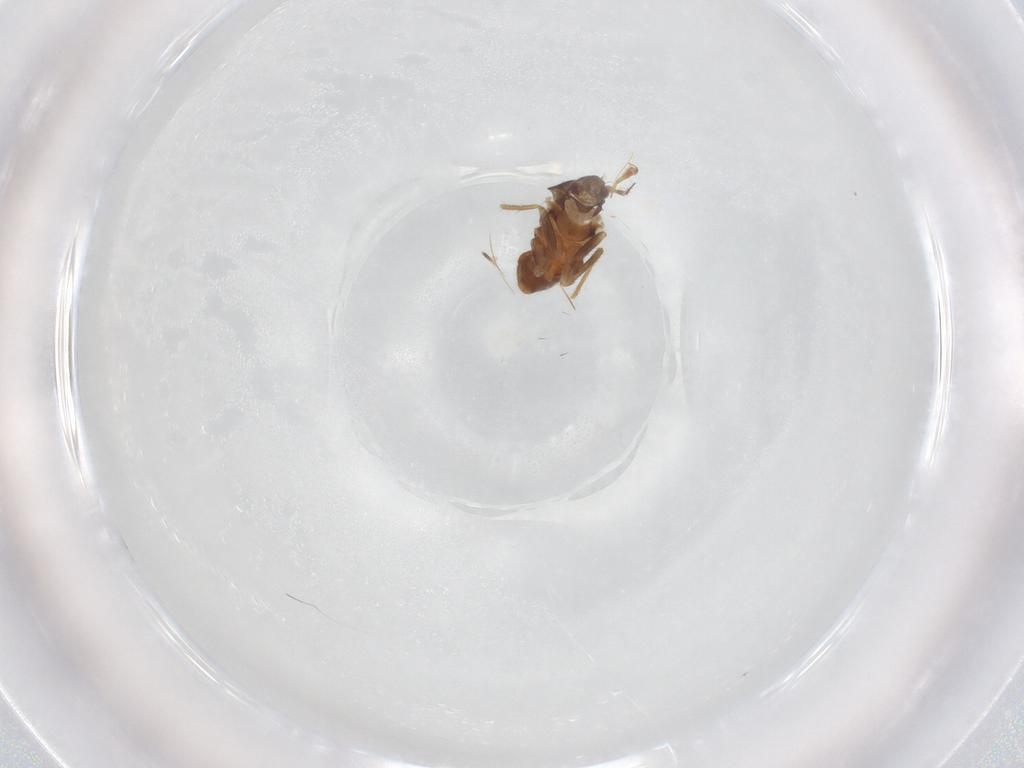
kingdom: Animalia
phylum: Arthropoda
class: Insecta
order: Hemiptera
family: Ceratocombidae
